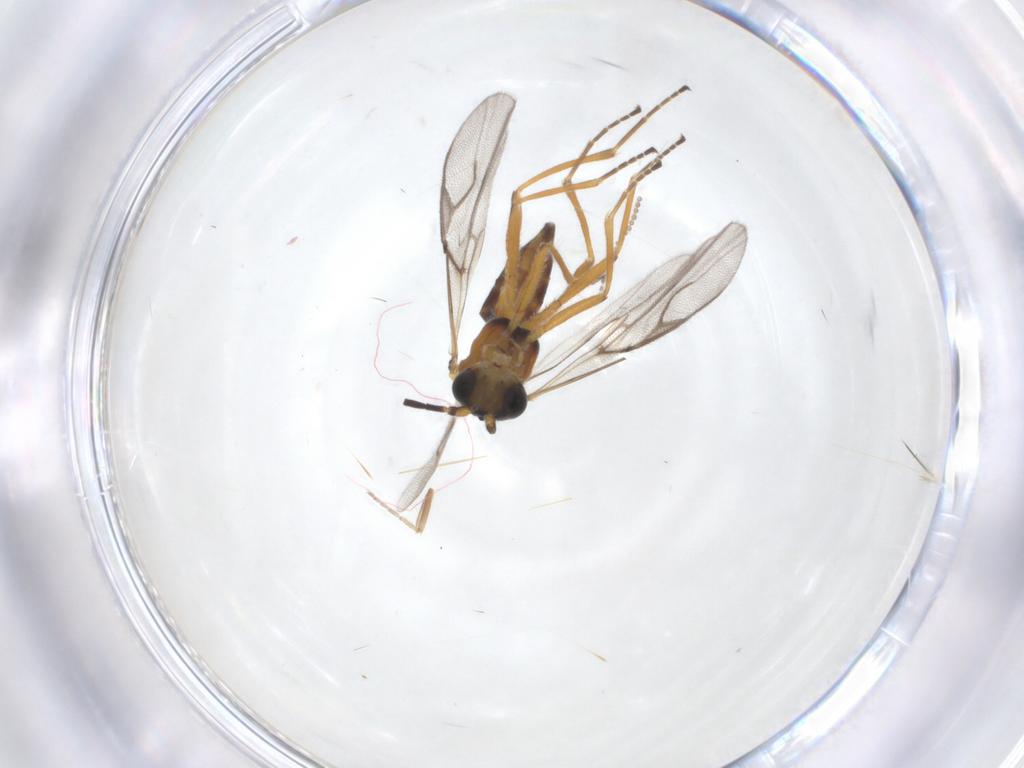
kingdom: Animalia
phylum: Arthropoda
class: Insecta
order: Hymenoptera
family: Braconidae
